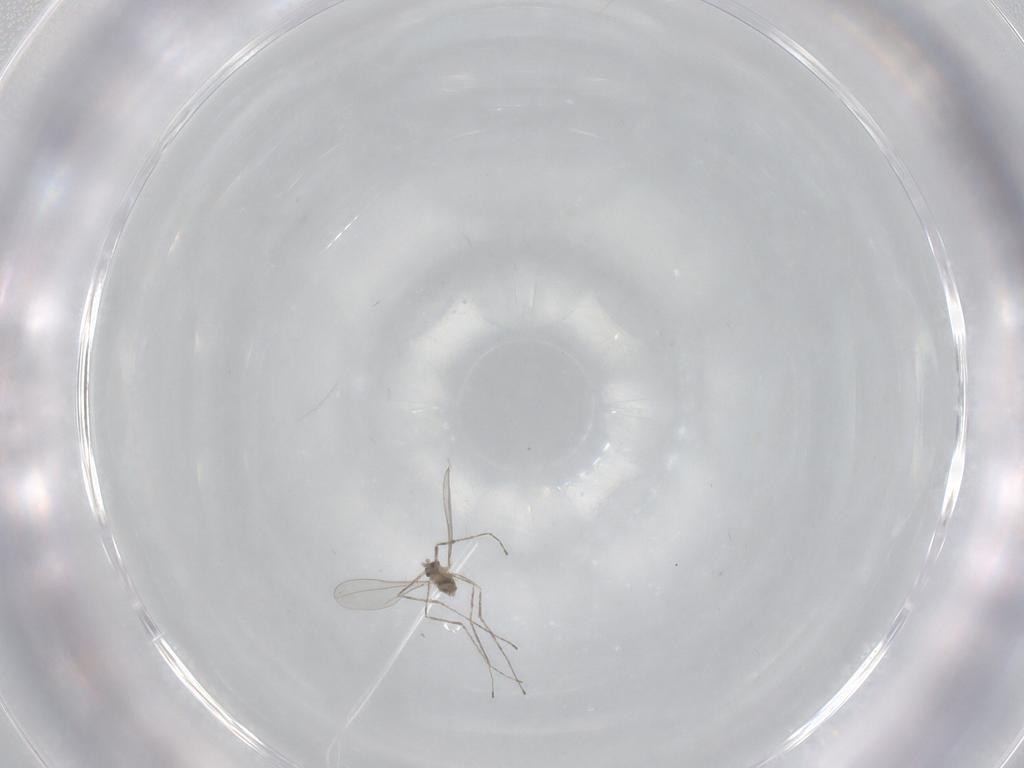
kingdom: Animalia
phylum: Arthropoda
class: Insecta
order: Diptera
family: Cecidomyiidae
